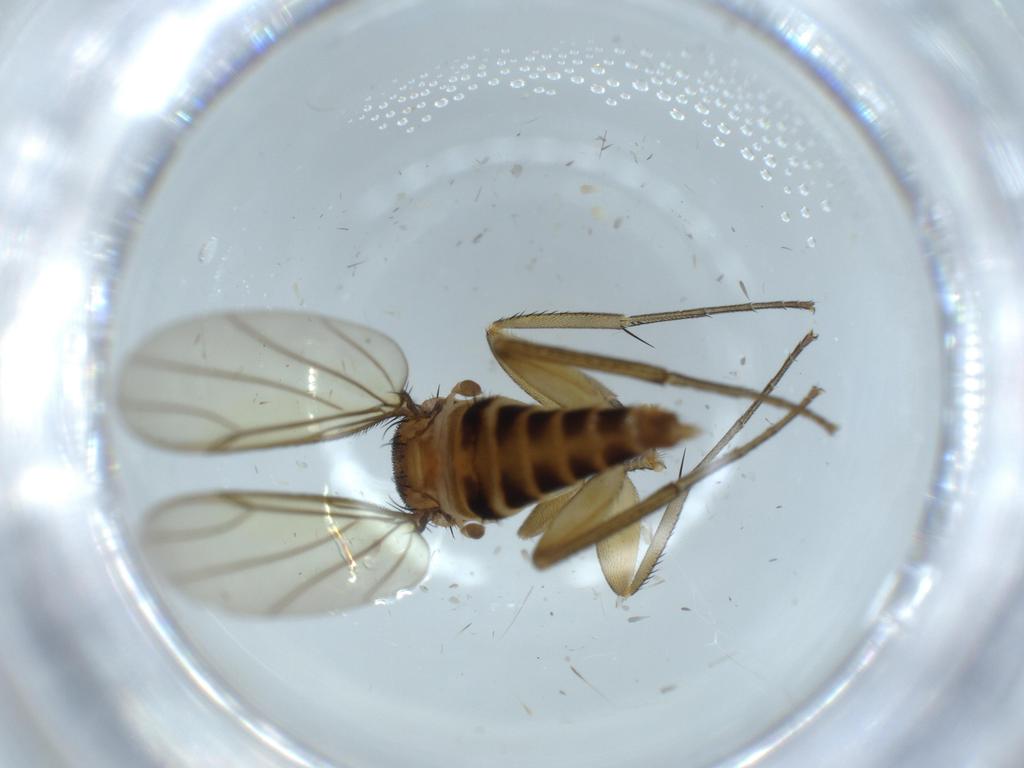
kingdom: Animalia
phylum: Arthropoda
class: Insecta
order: Diptera
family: Phoridae
